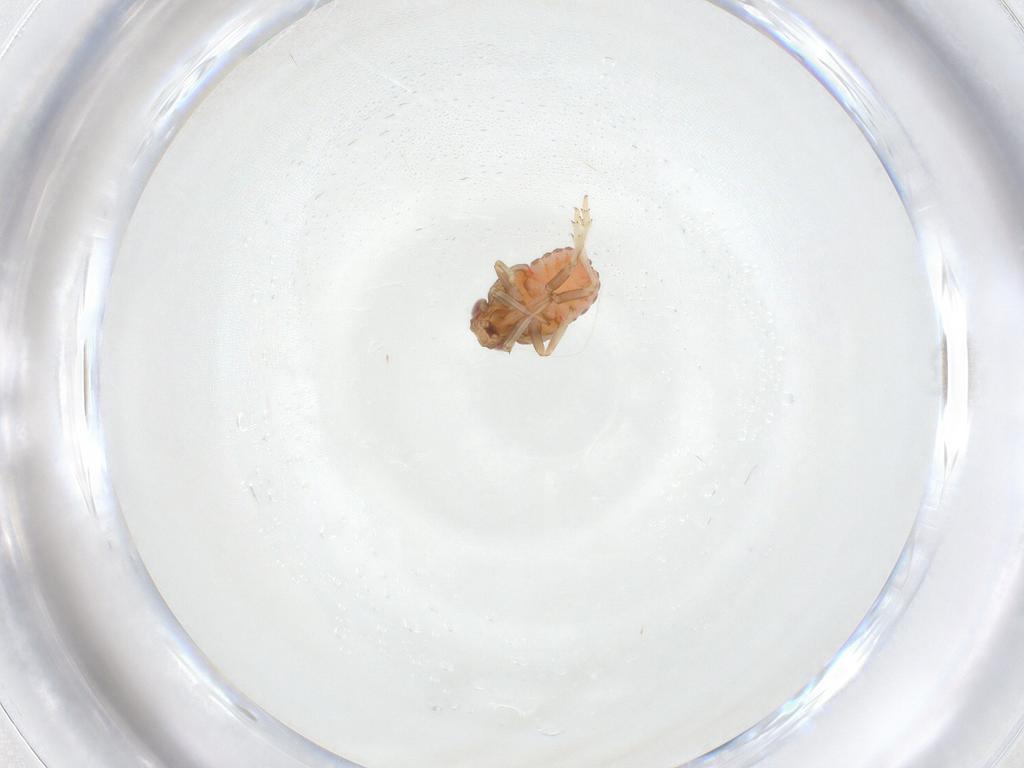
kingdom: Animalia
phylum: Arthropoda
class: Insecta
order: Hemiptera
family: Issidae
